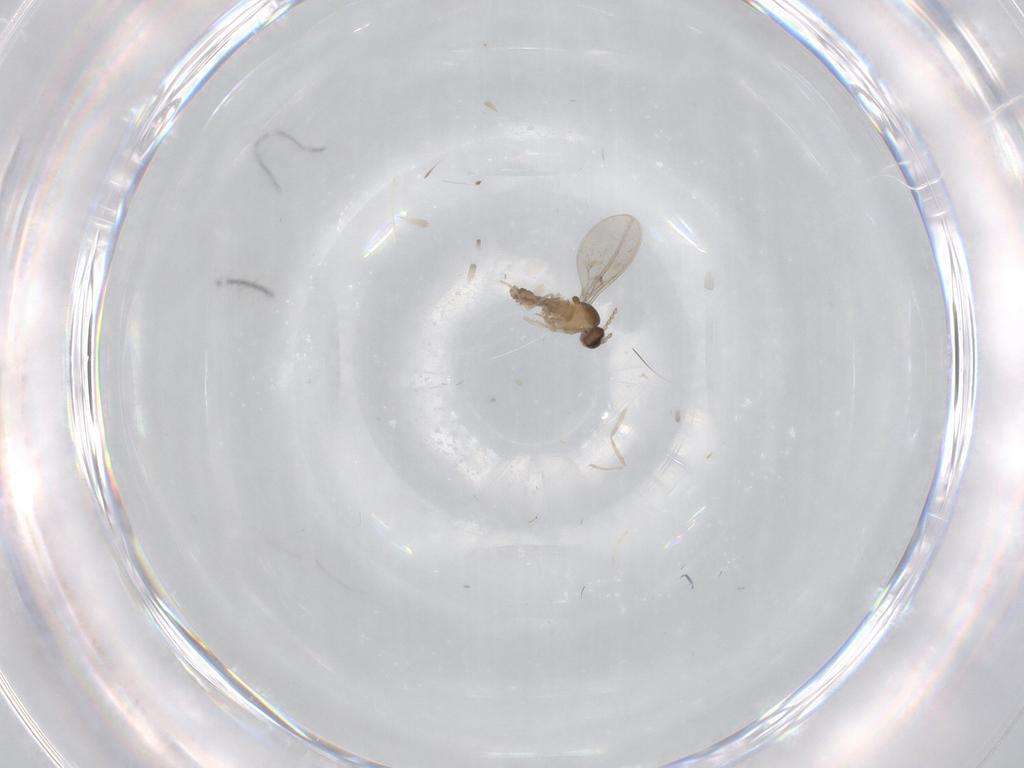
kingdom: Animalia
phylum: Arthropoda
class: Insecta
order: Diptera
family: Cecidomyiidae
